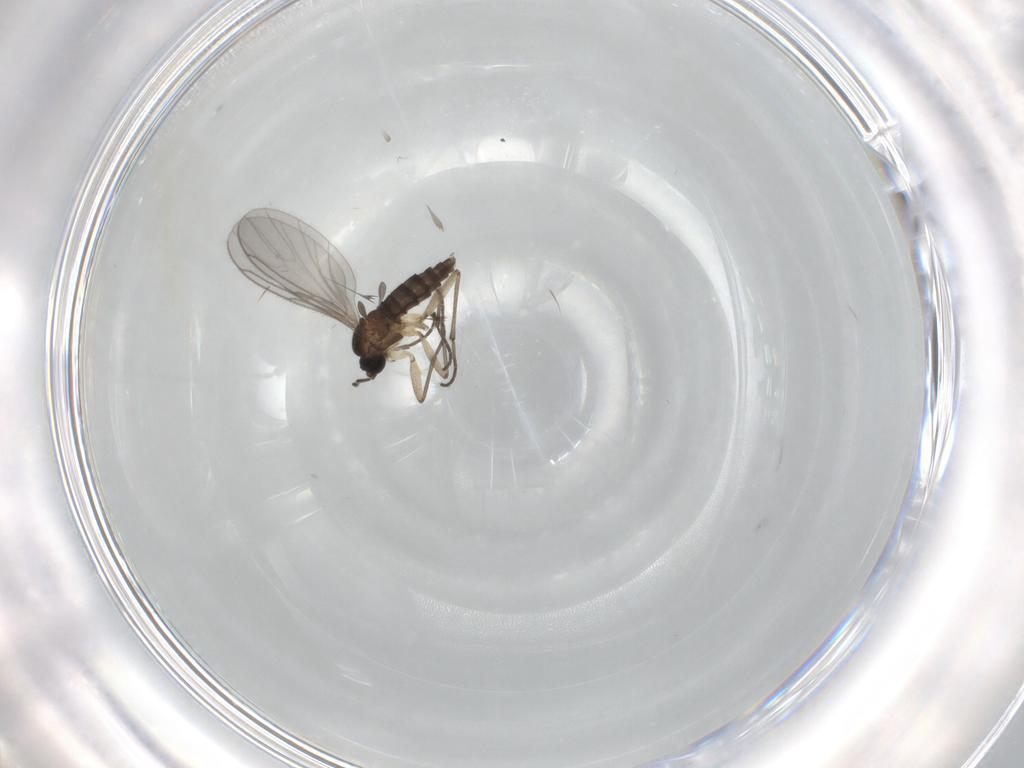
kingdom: Animalia
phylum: Arthropoda
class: Insecta
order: Diptera
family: Sciaridae
